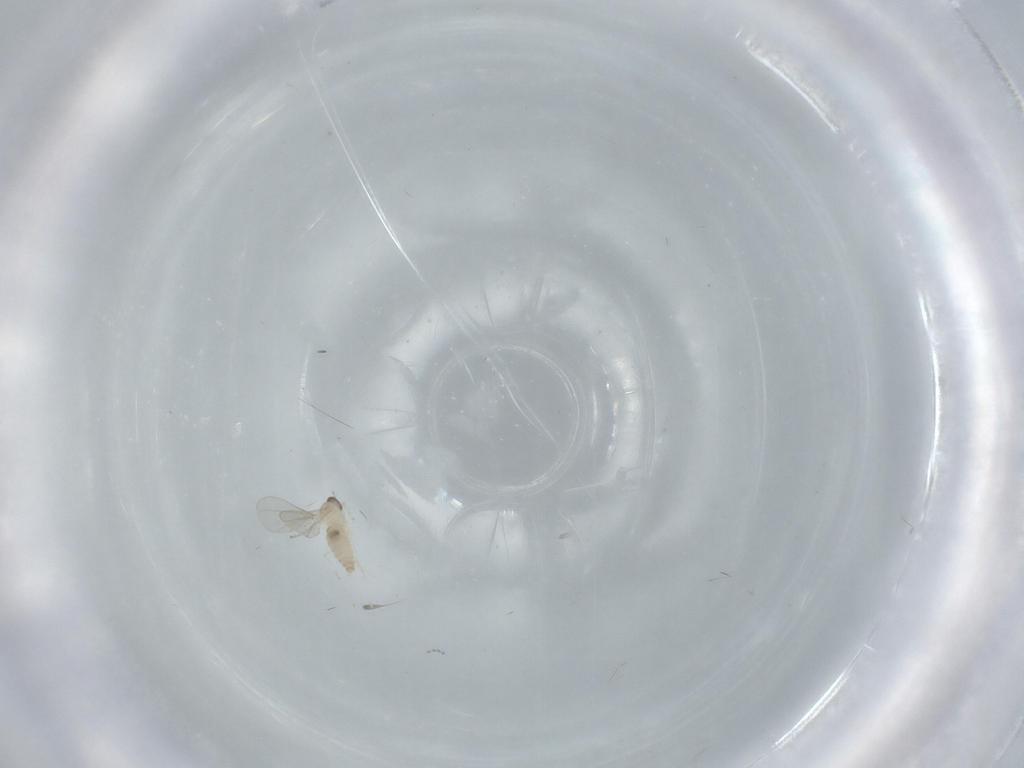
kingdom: Animalia
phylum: Arthropoda
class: Insecta
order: Diptera
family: Cecidomyiidae
